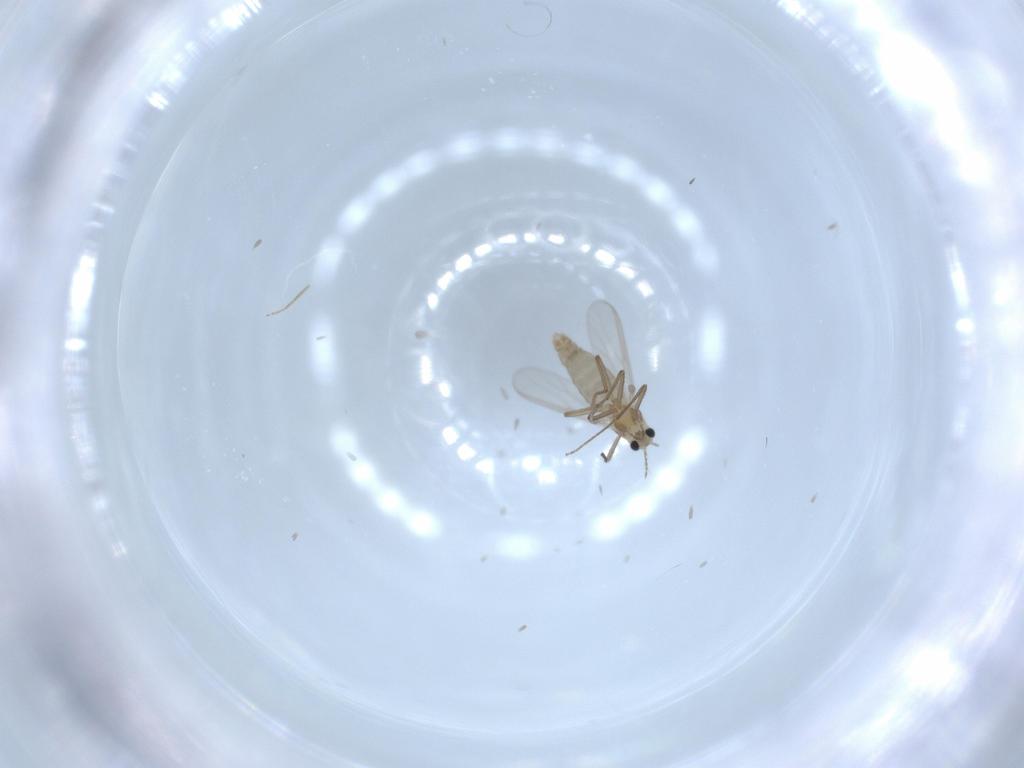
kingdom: Animalia
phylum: Arthropoda
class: Insecta
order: Diptera
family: Chironomidae
